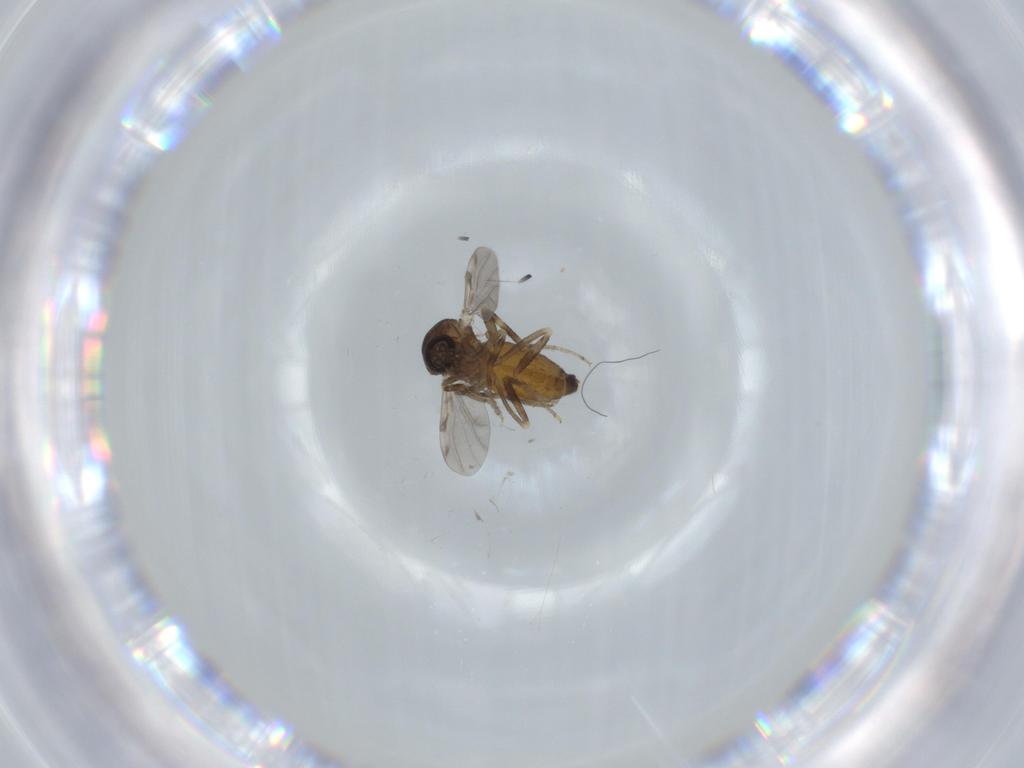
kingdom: Animalia
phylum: Arthropoda
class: Insecta
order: Diptera
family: Ceratopogonidae
